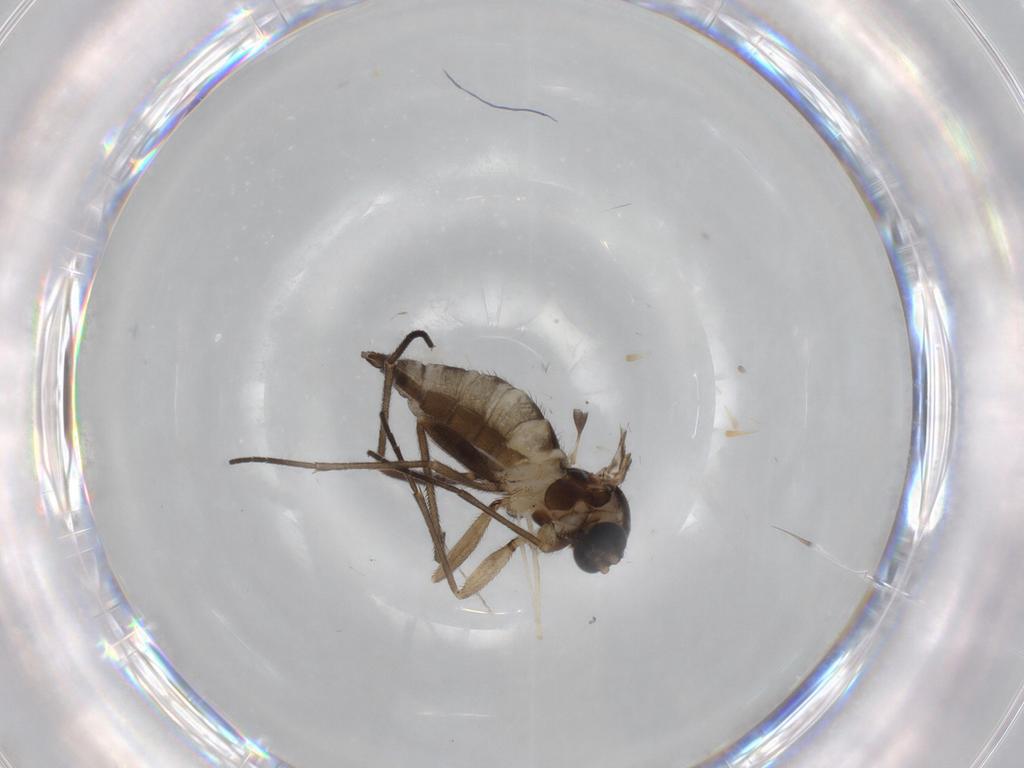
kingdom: Animalia
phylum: Arthropoda
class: Insecta
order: Diptera
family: Sciaridae
